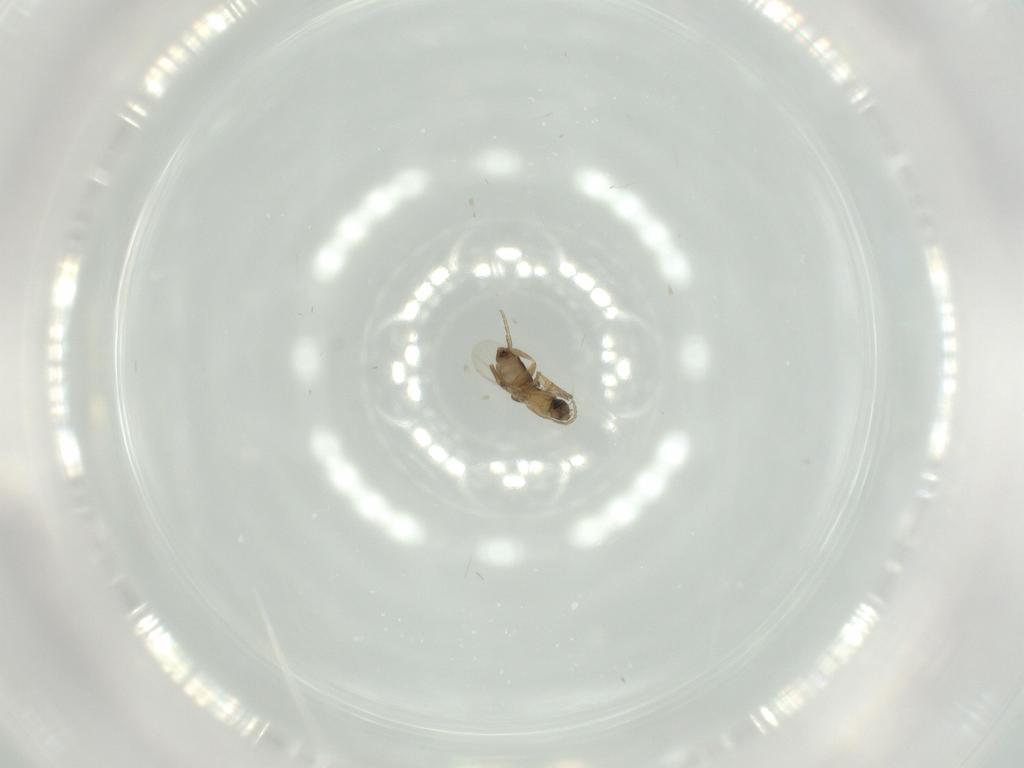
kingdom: Animalia
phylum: Arthropoda
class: Insecta
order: Diptera
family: Phoridae
